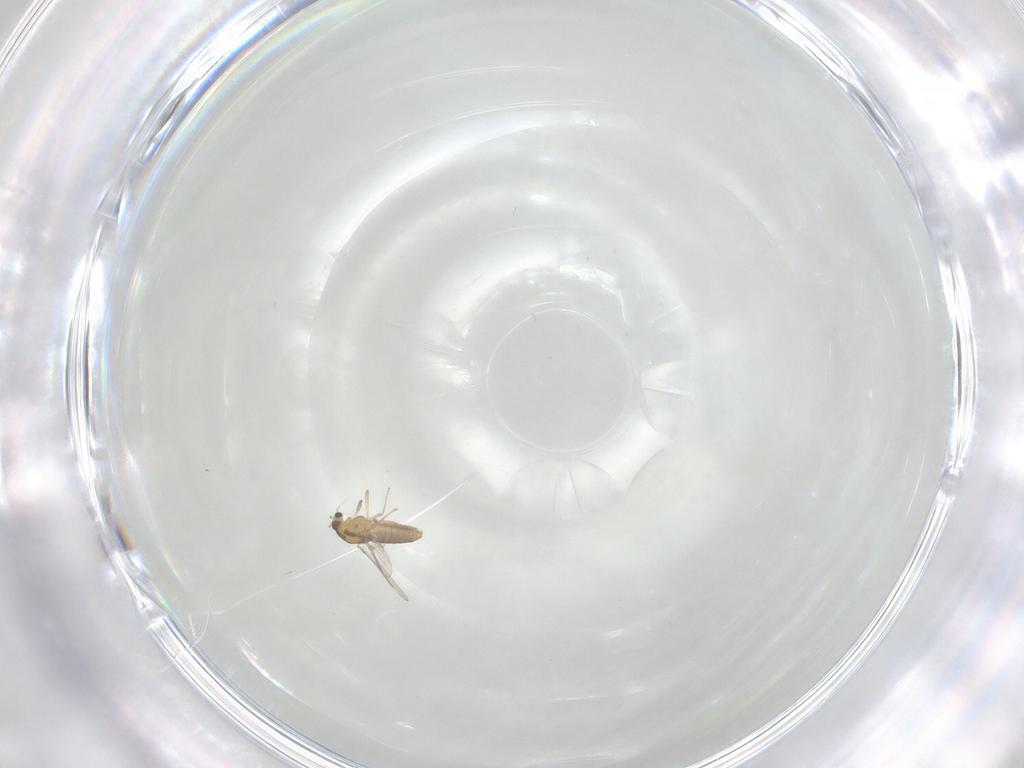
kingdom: Animalia
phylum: Arthropoda
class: Insecta
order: Diptera
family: Chironomidae
